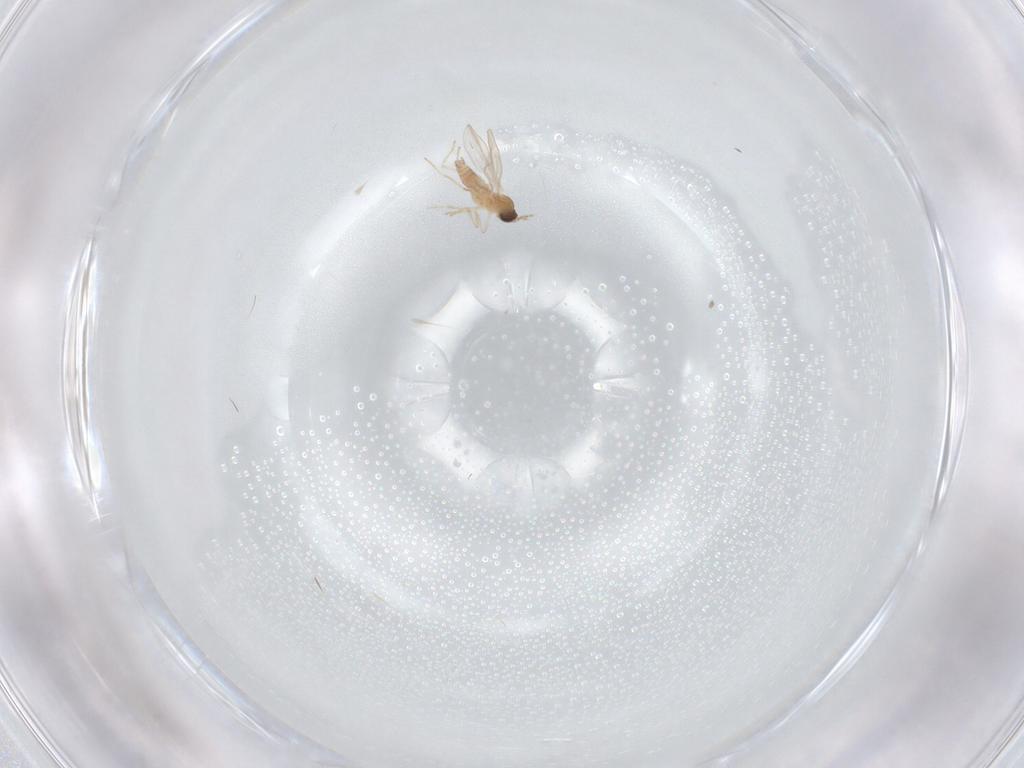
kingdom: Animalia
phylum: Arthropoda
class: Insecta
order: Diptera
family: Cecidomyiidae
